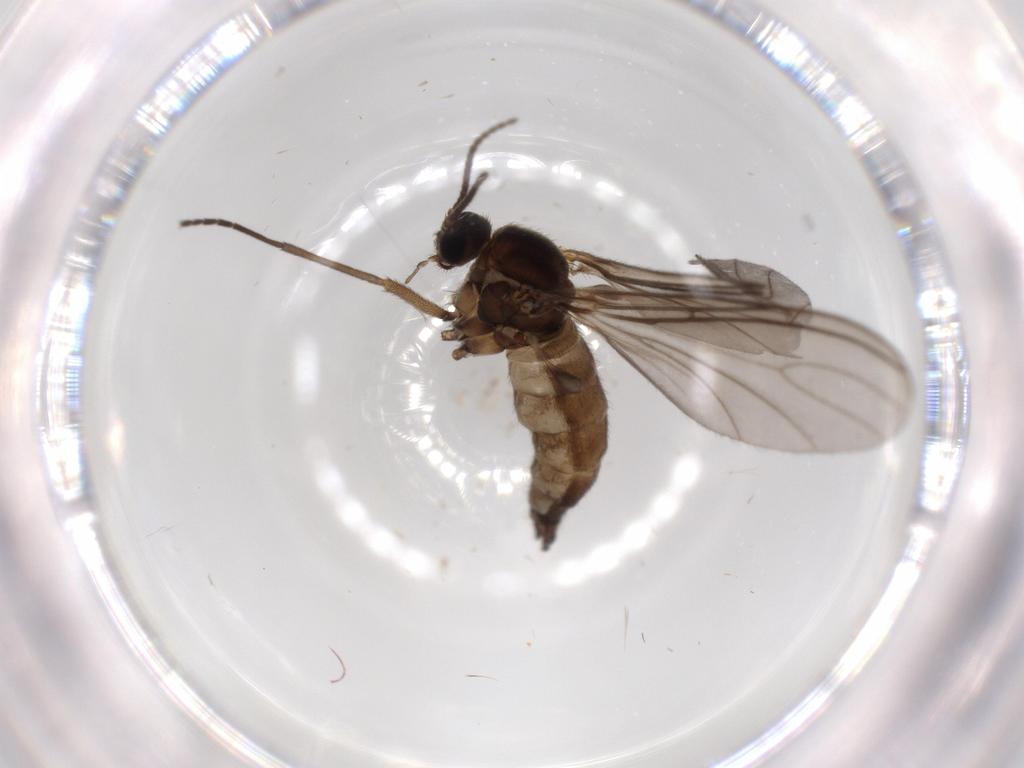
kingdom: Animalia
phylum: Arthropoda
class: Insecta
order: Diptera
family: Sciaridae
